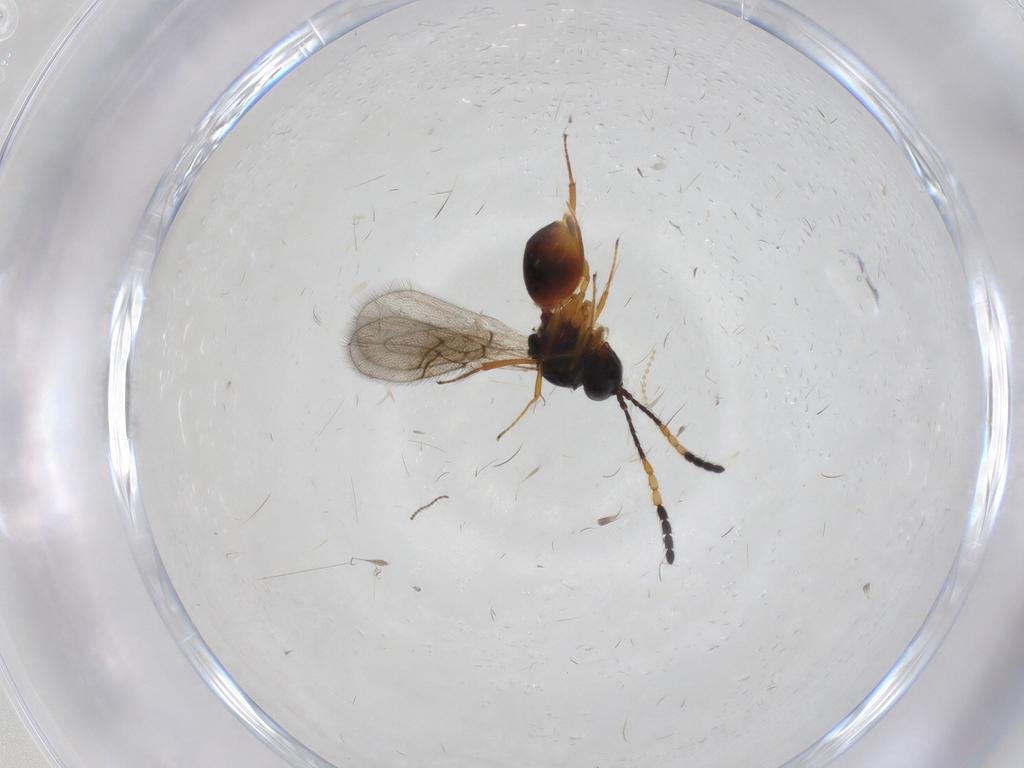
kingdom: Animalia
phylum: Arthropoda
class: Insecta
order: Hymenoptera
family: Figitidae
